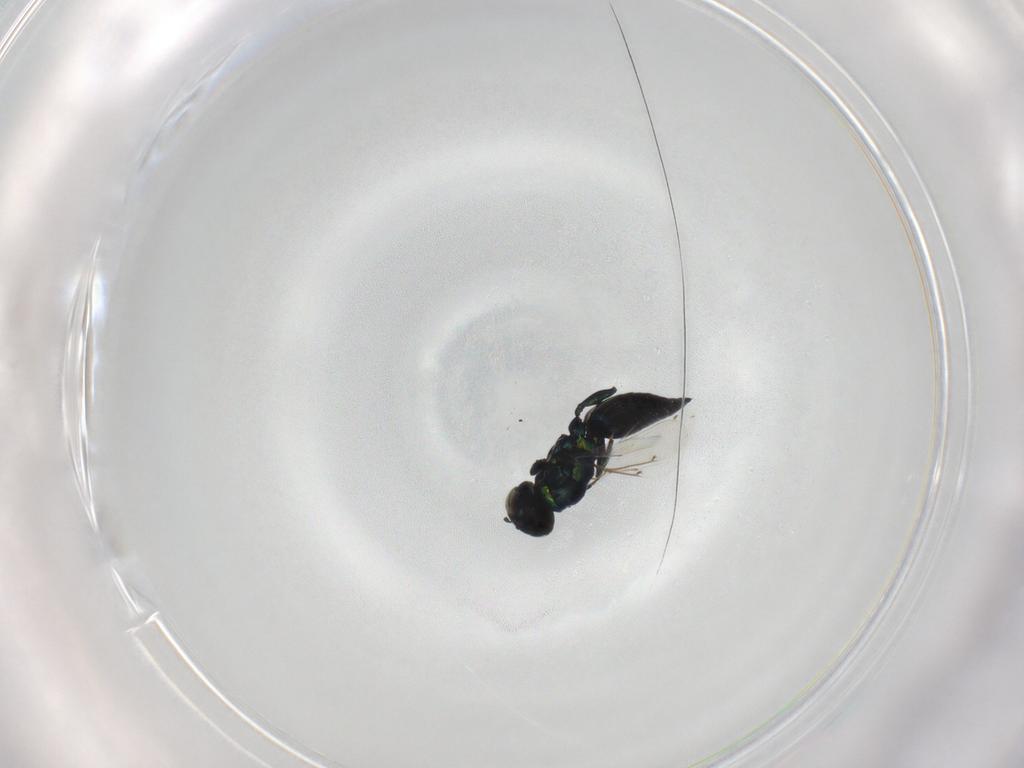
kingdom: Animalia
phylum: Arthropoda
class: Insecta
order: Hymenoptera
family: Eulophidae
